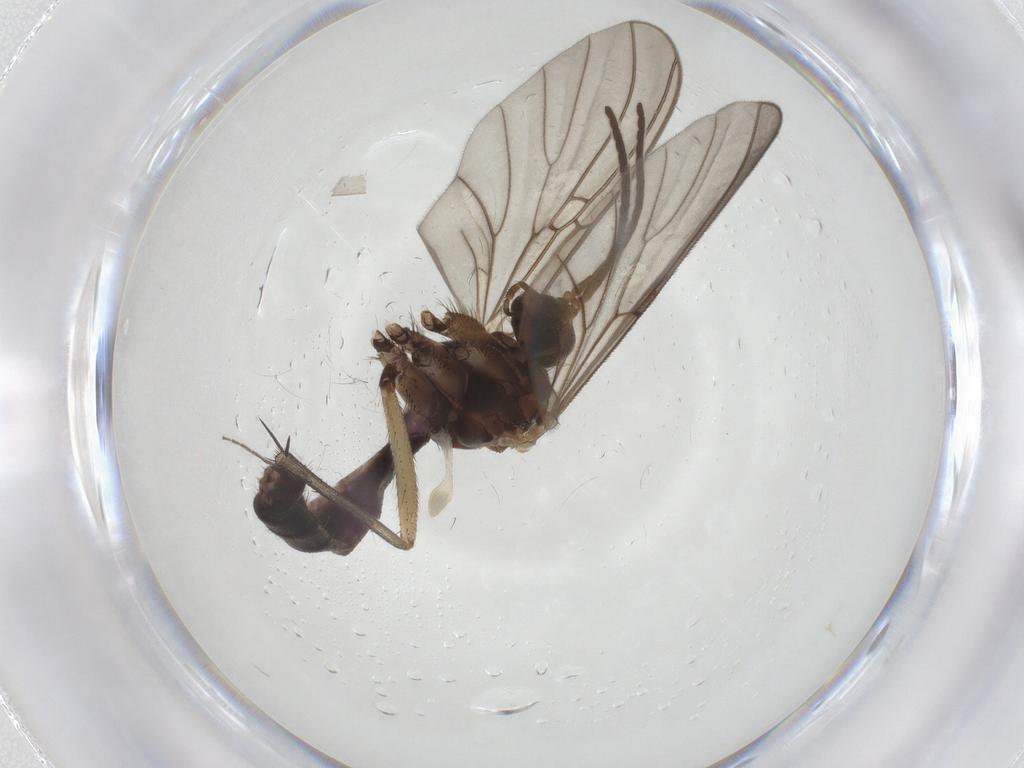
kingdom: Animalia
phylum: Arthropoda
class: Insecta
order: Diptera
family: Mycetophilidae
